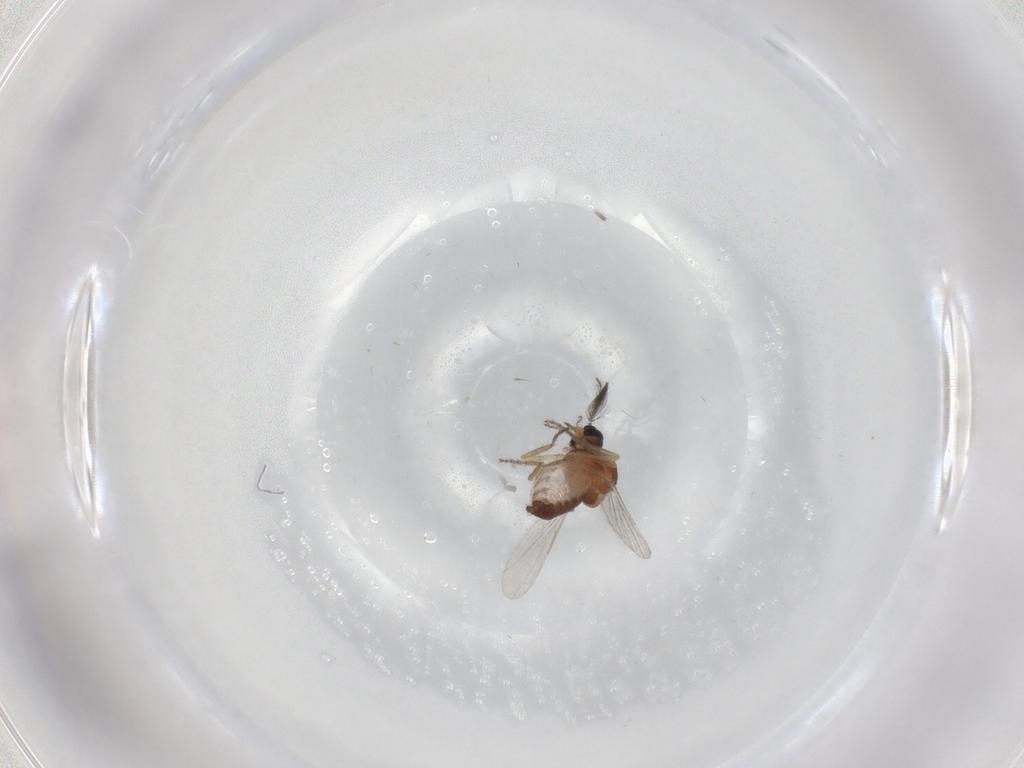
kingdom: Animalia
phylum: Arthropoda
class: Insecta
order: Diptera
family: Ceratopogonidae
